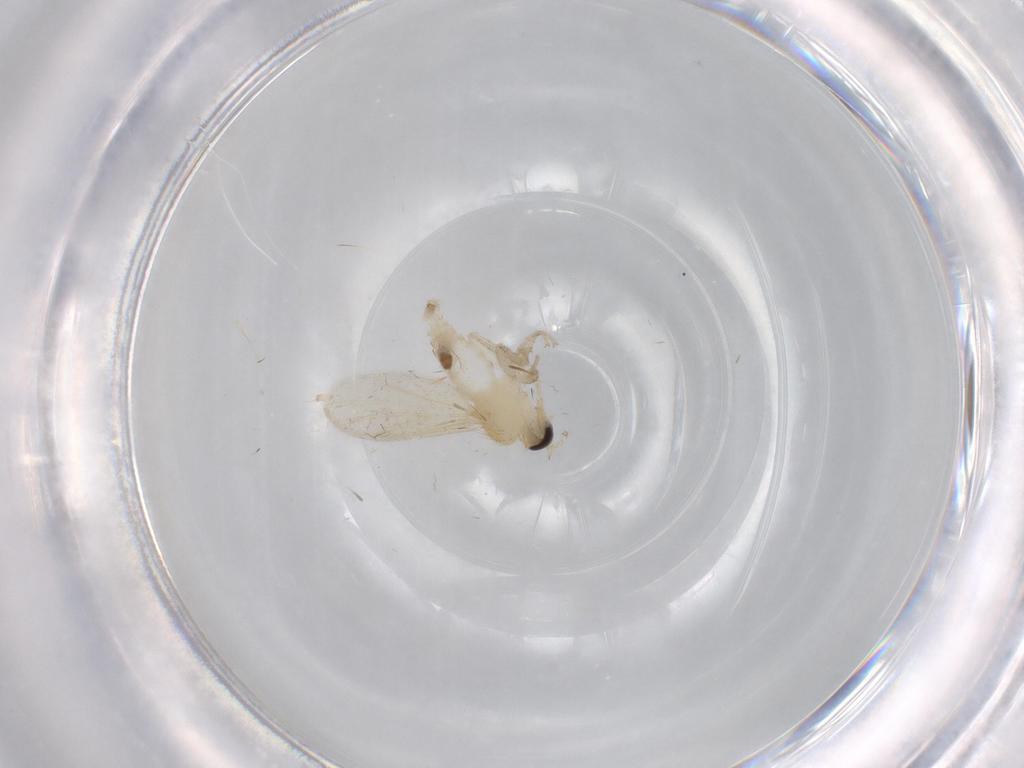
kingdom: Animalia
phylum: Arthropoda
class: Insecta
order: Diptera
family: Hybotidae
